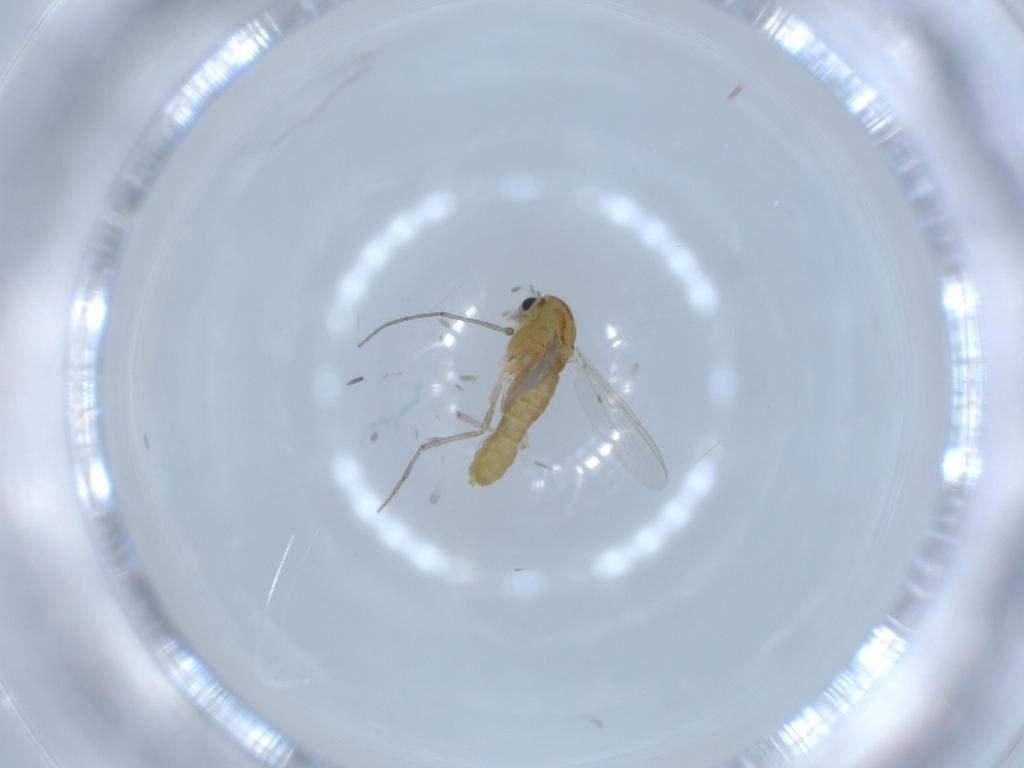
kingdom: Animalia
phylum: Arthropoda
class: Insecta
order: Diptera
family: Chironomidae
